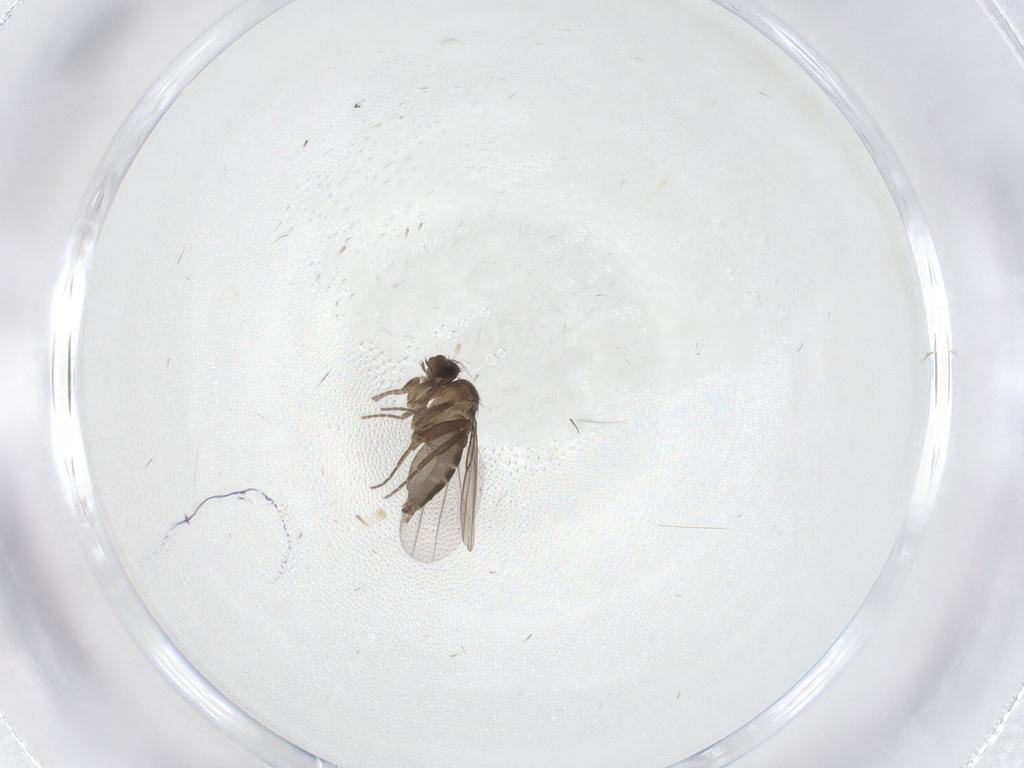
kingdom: Animalia
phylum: Arthropoda
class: Insecta
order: Diptera
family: Phoridae
